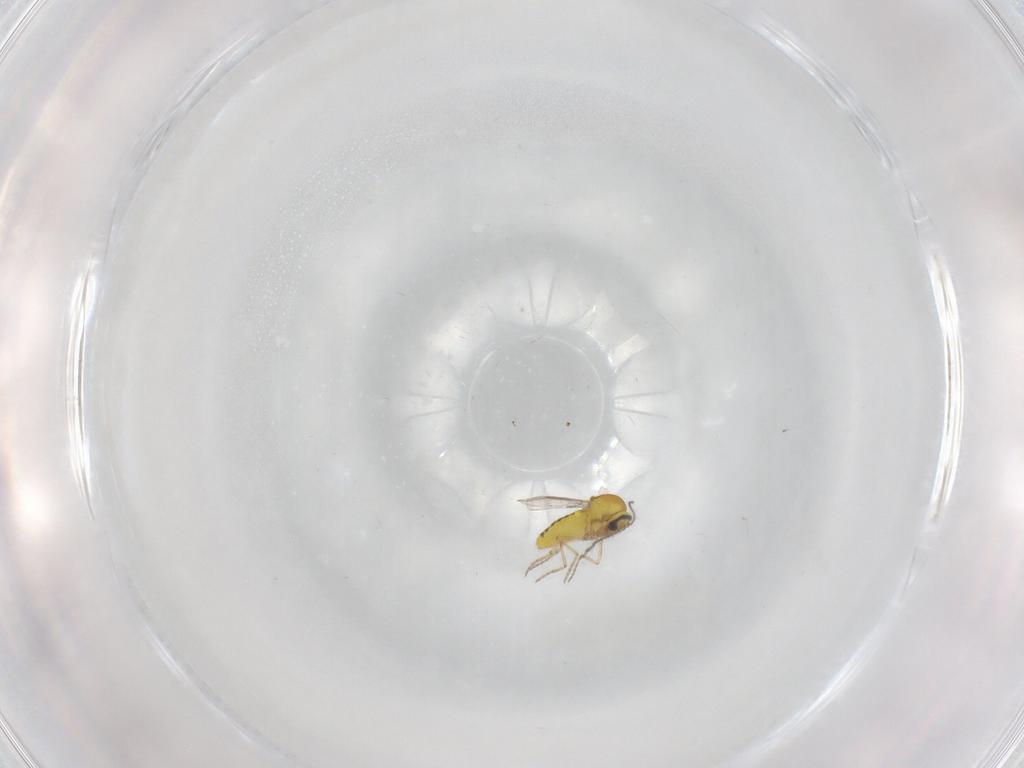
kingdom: Animalia
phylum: Arthropoda
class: Insecta
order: Diptera
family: Ceratopogonidae
